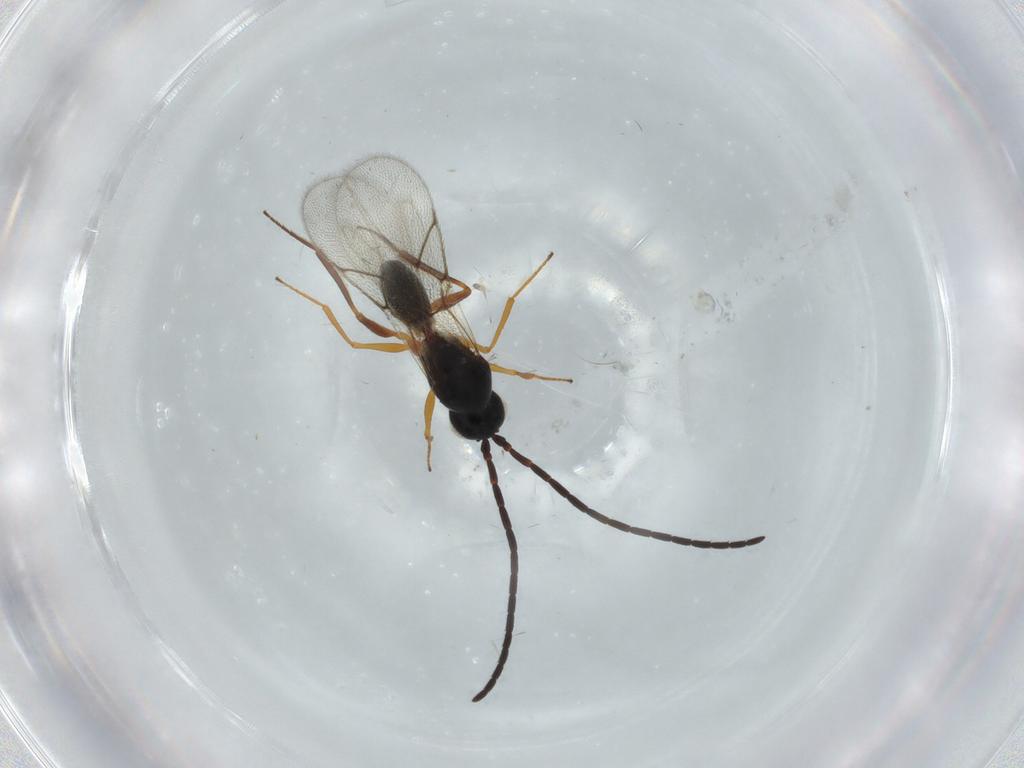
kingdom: Animalia
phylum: Arthropoda
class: Insecta
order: Hymenoptera
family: Figitidae
